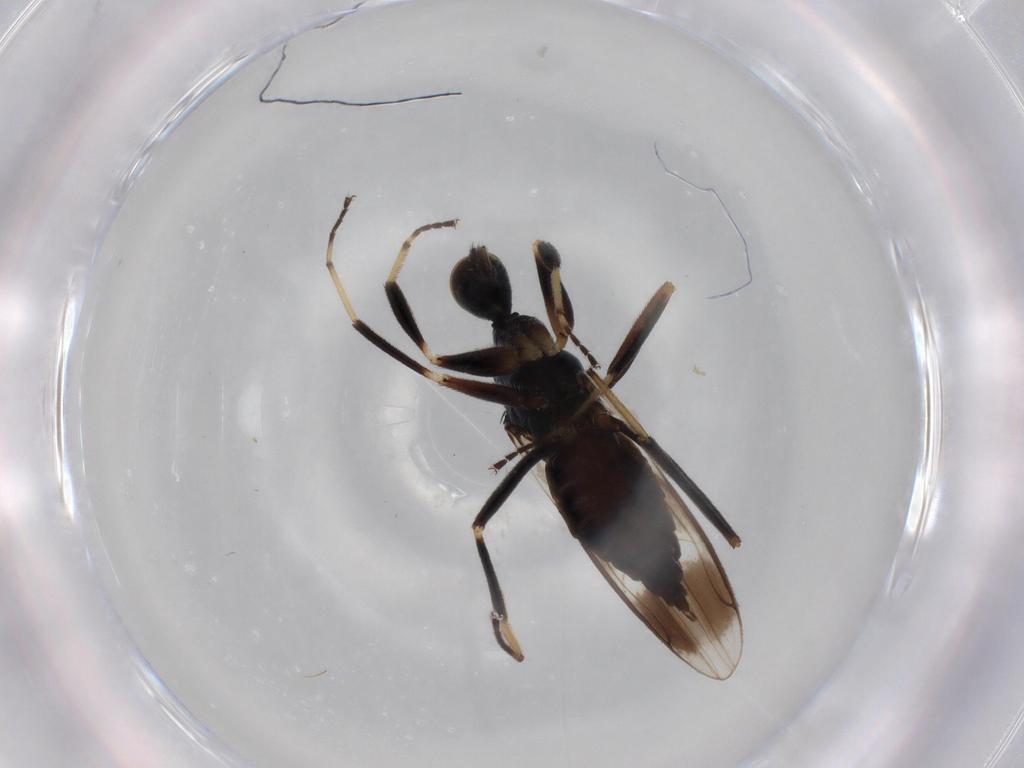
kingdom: Animalia
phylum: Arthropoda
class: Insecta
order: Diptera
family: Hybotidae
